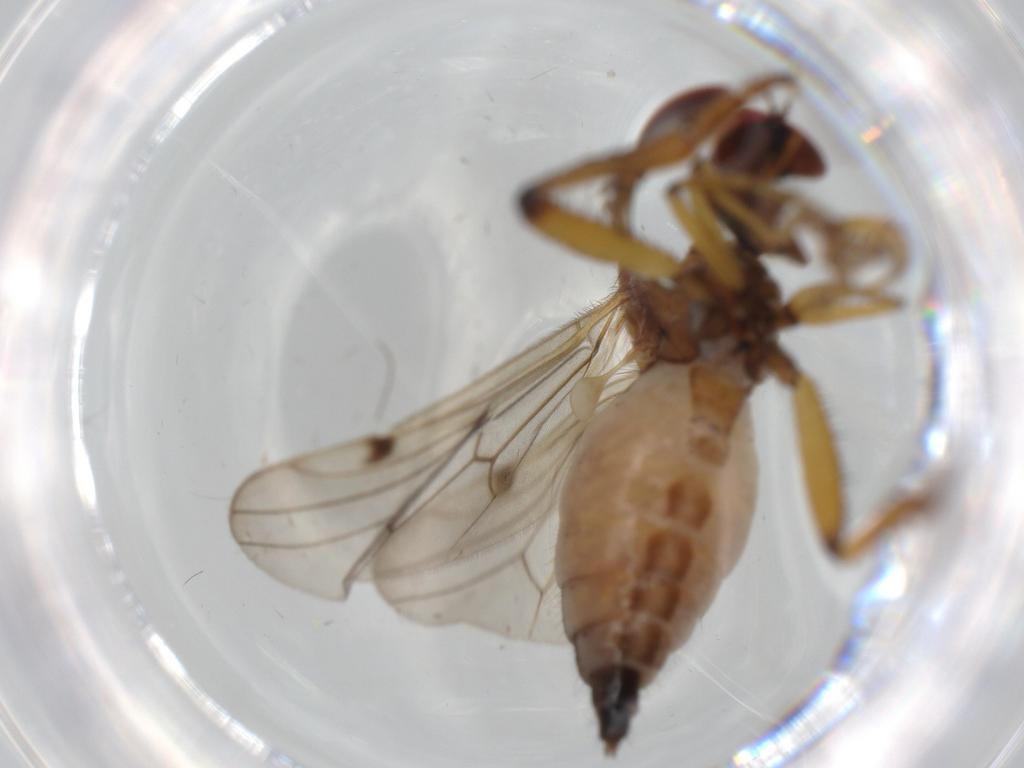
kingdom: Animalia
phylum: Arthropoda
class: Insecta
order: Diptera
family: Hybotidae
